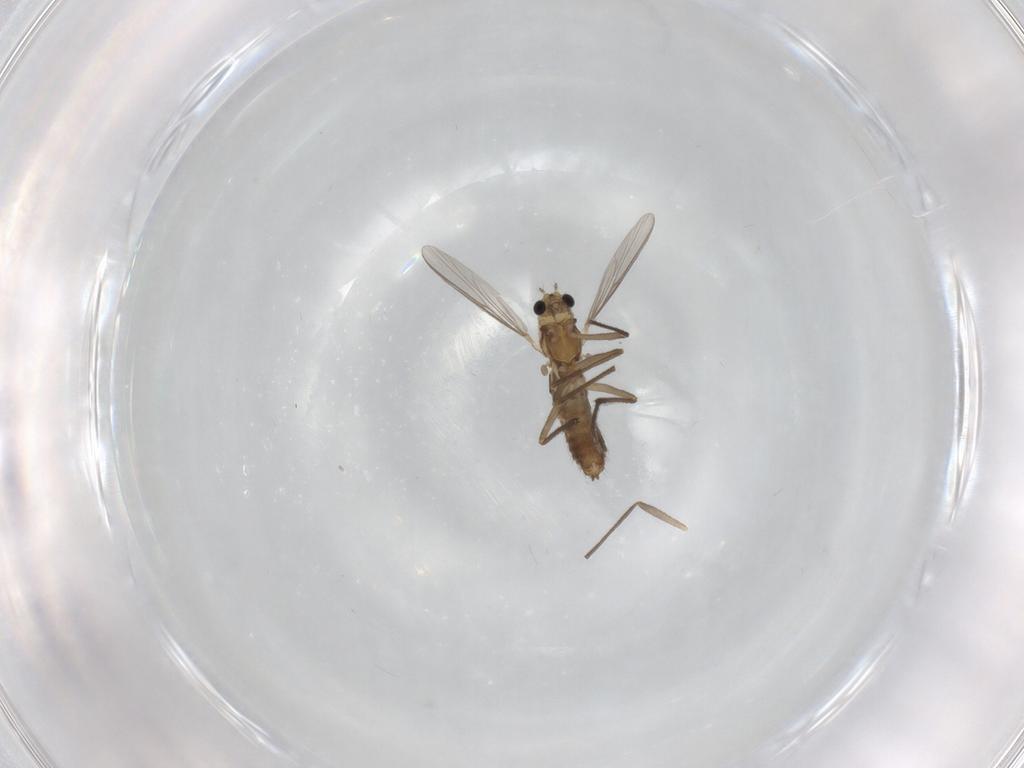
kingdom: Animalia
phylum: Arthropoda
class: Insecta
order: Diptera
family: Chironomidae
